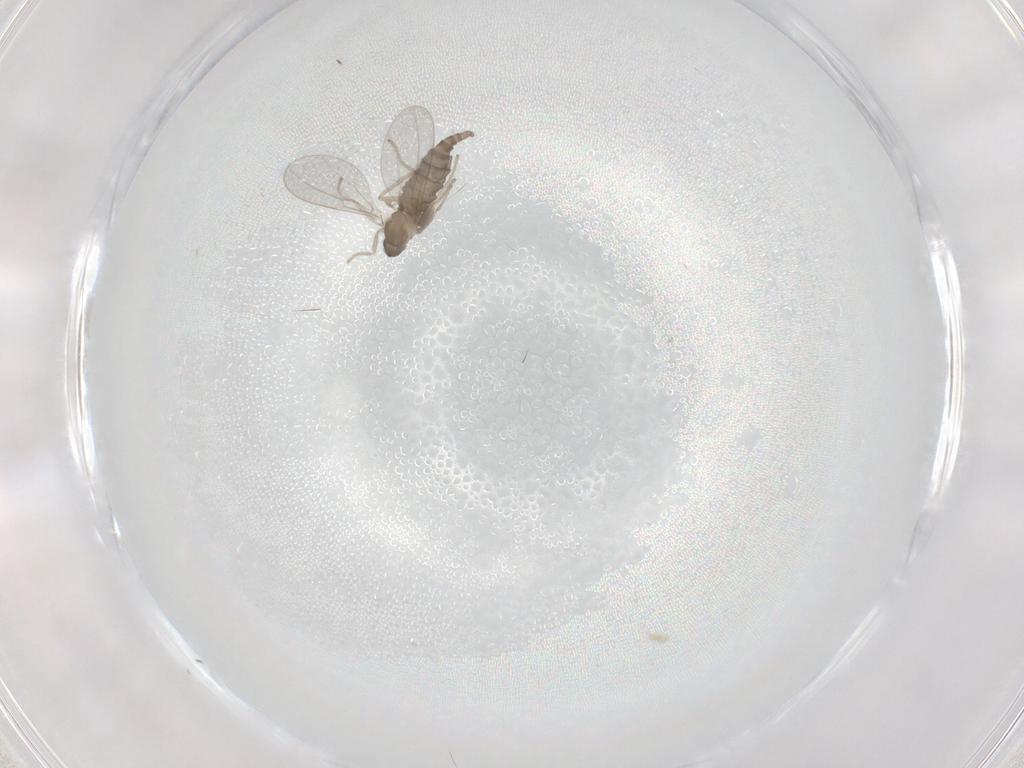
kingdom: Animalia
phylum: Arthropoda
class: Insecta
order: Diptera
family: Cecidomyiidae
